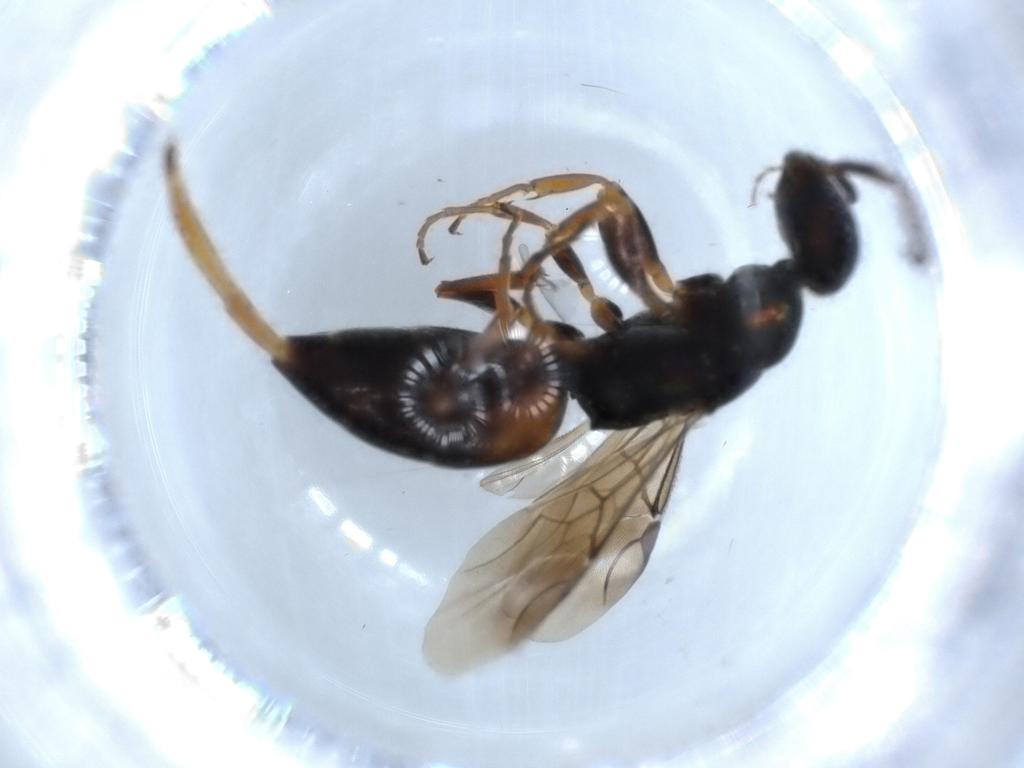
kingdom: Animalia
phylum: Arthropoda
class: Insecta
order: Hymenoptera
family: Chrysididae
